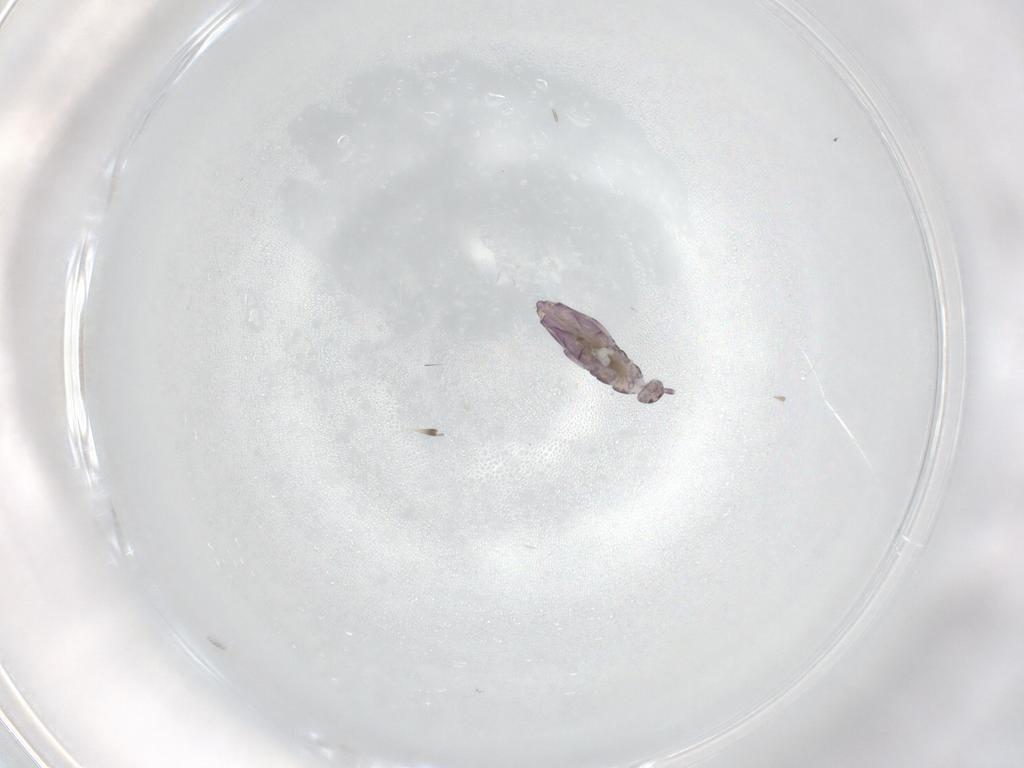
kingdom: Animalia
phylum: Arthropoda
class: Collembola
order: Entomobryomorpha
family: Entomobryidae
